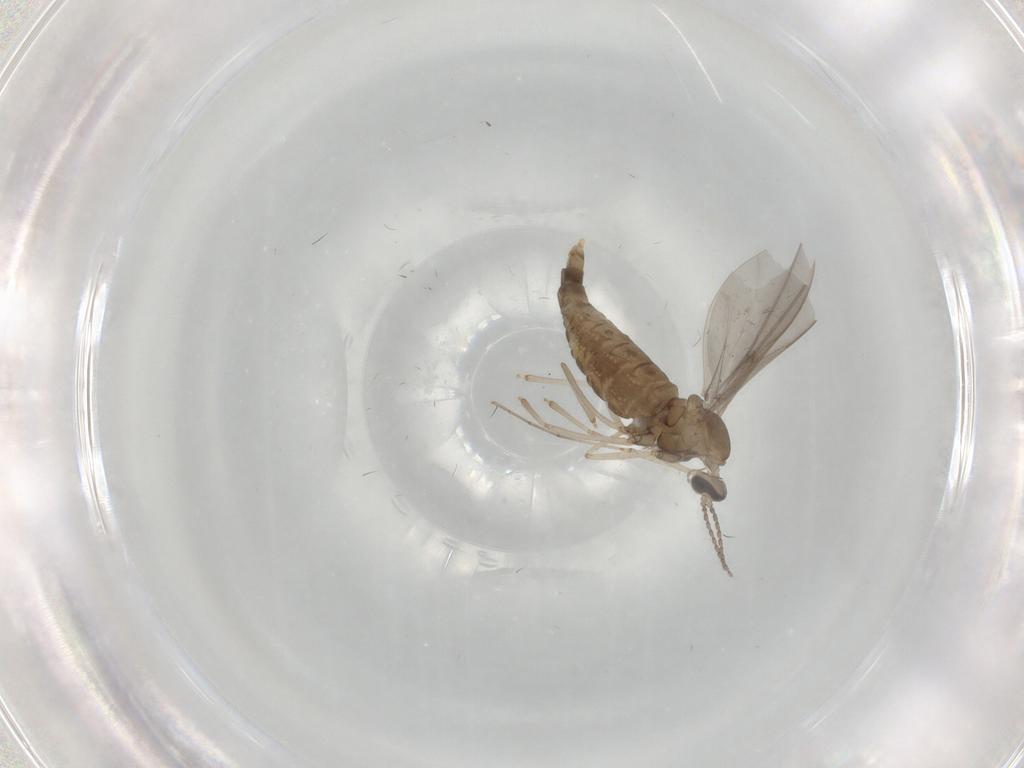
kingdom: Animalia
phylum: Arthropoda
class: Insecta
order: Diptera
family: Cecidomyiidae
